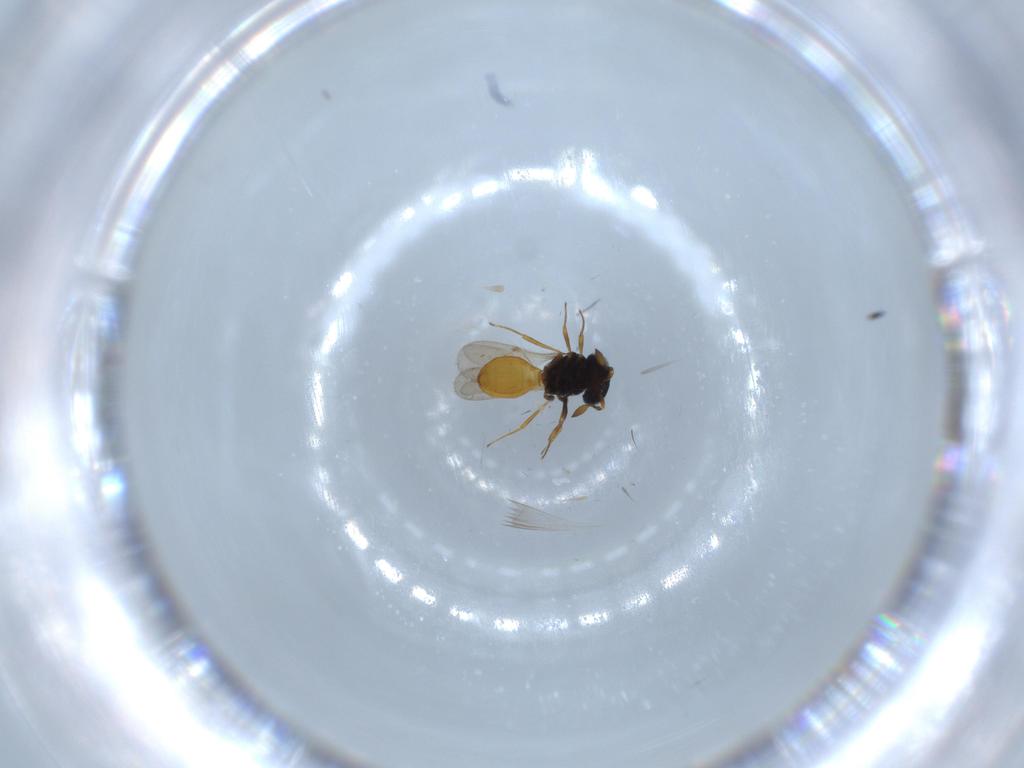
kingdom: Animalia
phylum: Arthropoda
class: Insecta
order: Hymenoptera
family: Scelionidae
